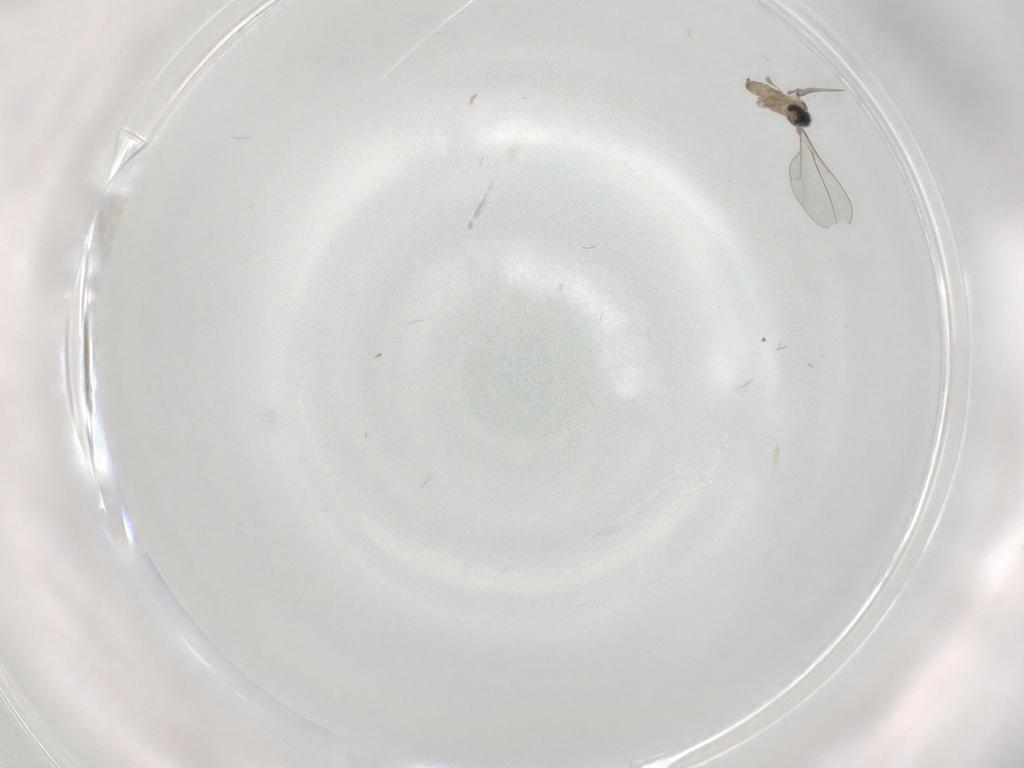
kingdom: Animalia
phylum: Arthropoda
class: Insecta
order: Diptera
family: Cecidomyiidae
